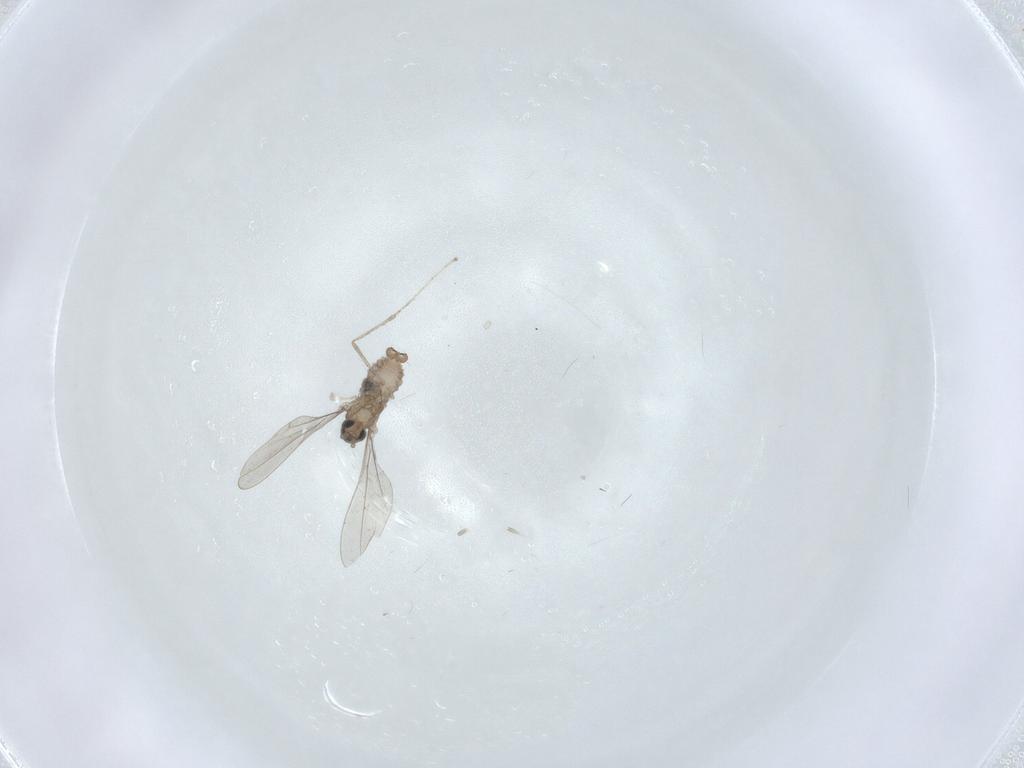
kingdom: Animalia
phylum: Arthropoda
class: Insecta
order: Diptera
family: Cecidomyiidae
